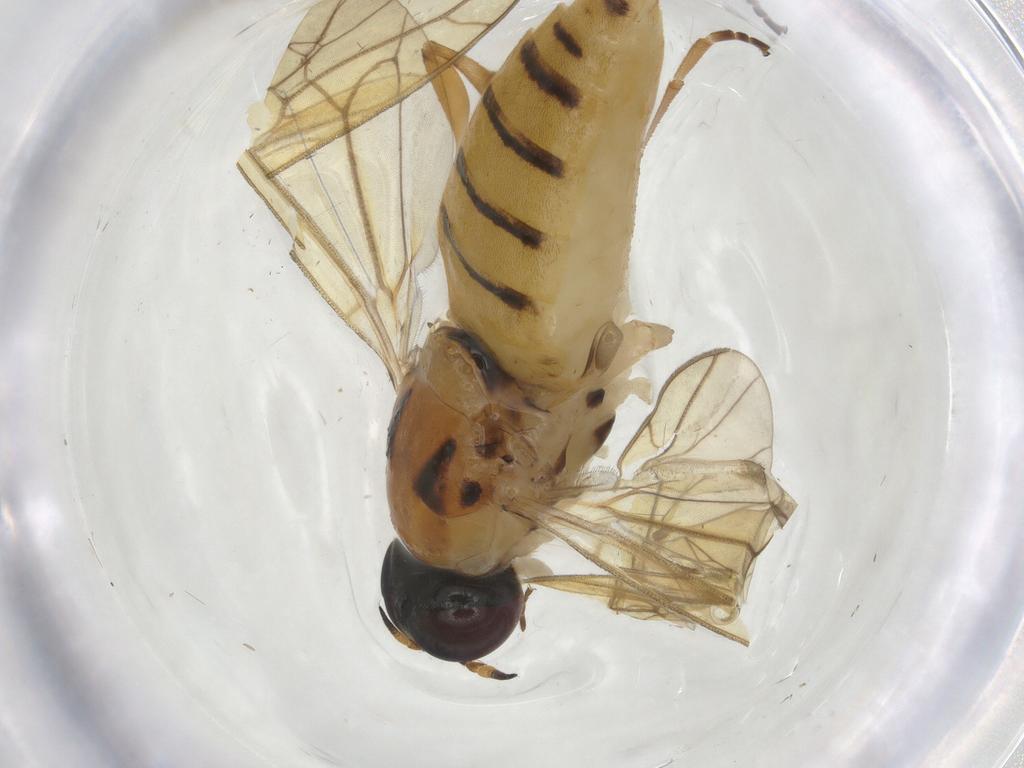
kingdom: Animalia
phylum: Arthropoda
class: Insecta
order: Diptera
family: Stratiomyidae
